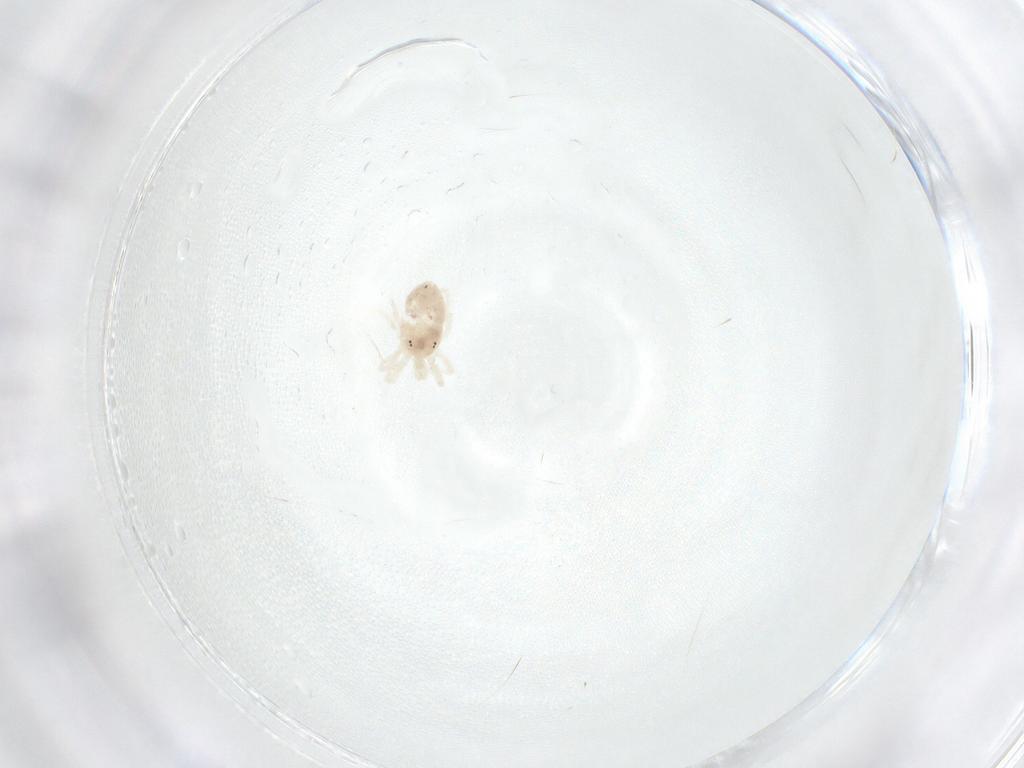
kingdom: Animalia
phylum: Arthropoda
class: Arachnida
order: Trombidiformes
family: Tydeidae
